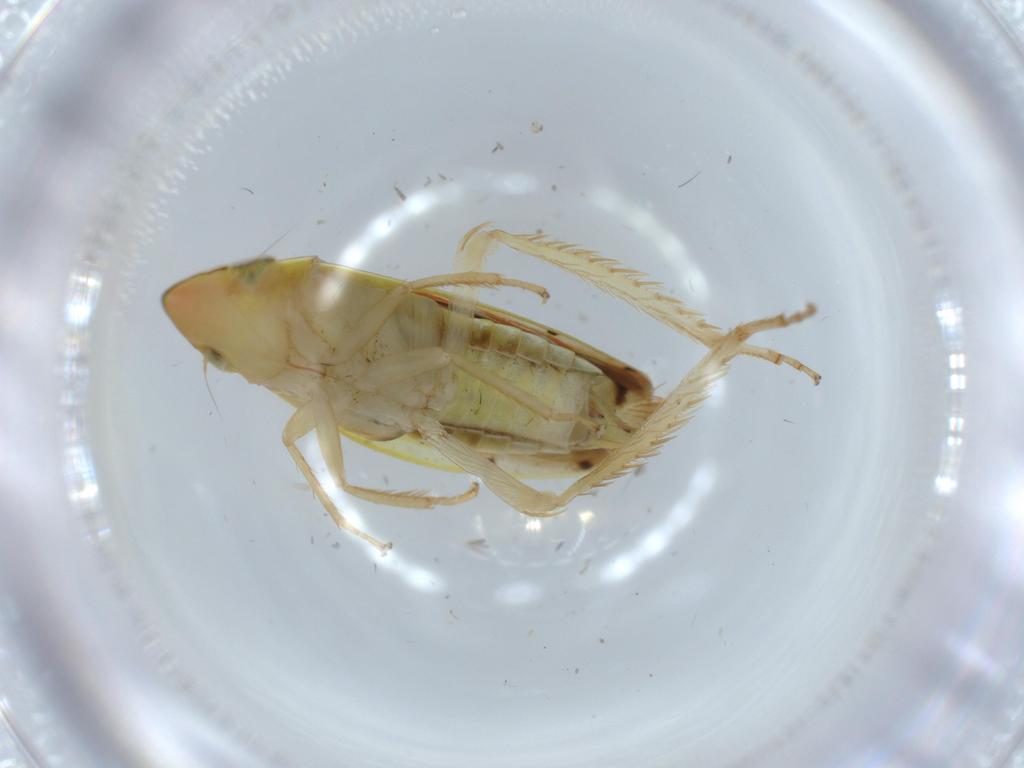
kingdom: Animalia
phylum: Arthropoda
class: Insecta
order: Hemiptera
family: Cicadellidae
